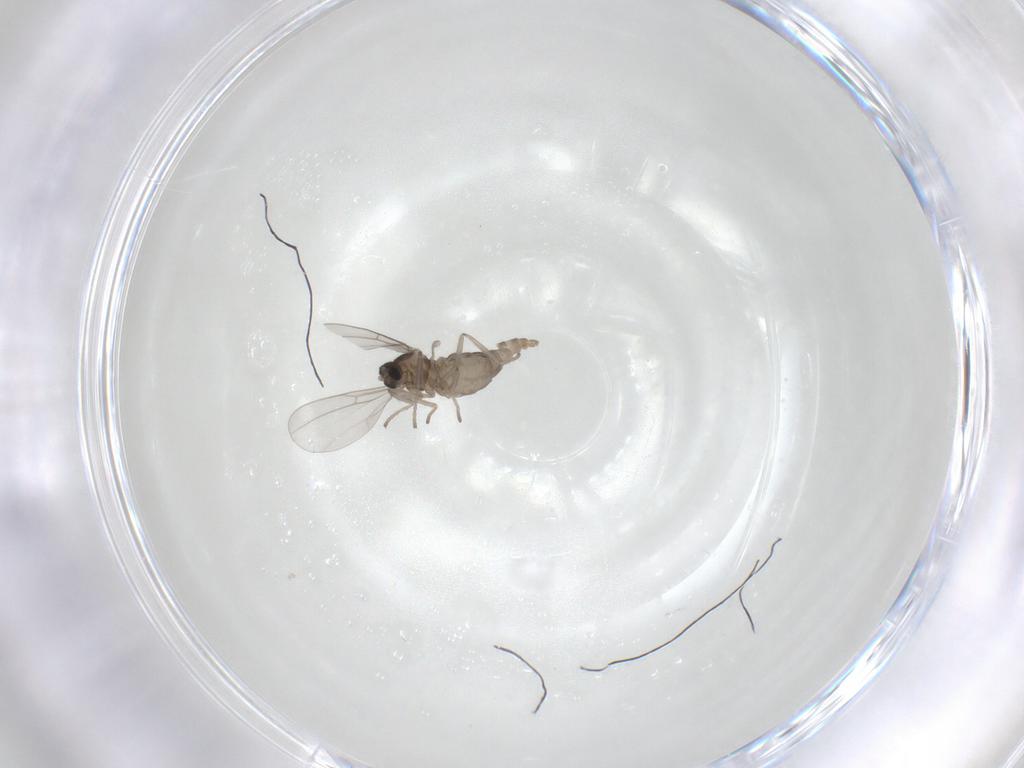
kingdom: Animalia
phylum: Arthropoda
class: Insecta
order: Diptera
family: Cecidomyiidae
